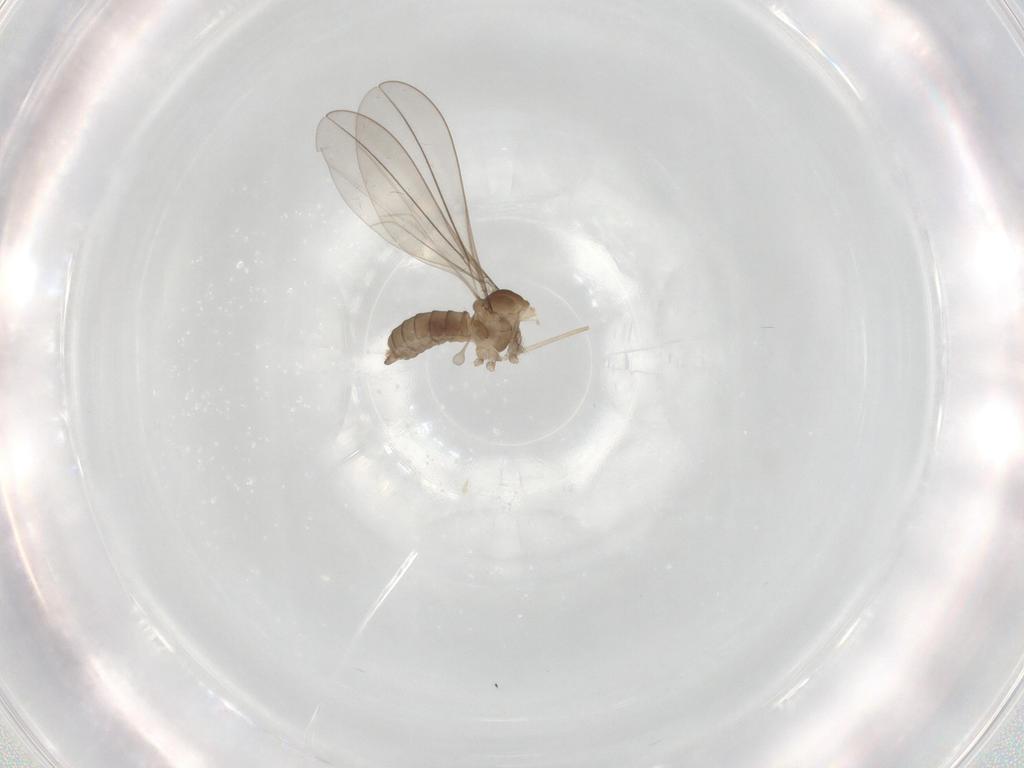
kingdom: Animalia
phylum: Arthropoda
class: Insecta
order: Diptera
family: Cecidomyiidae
